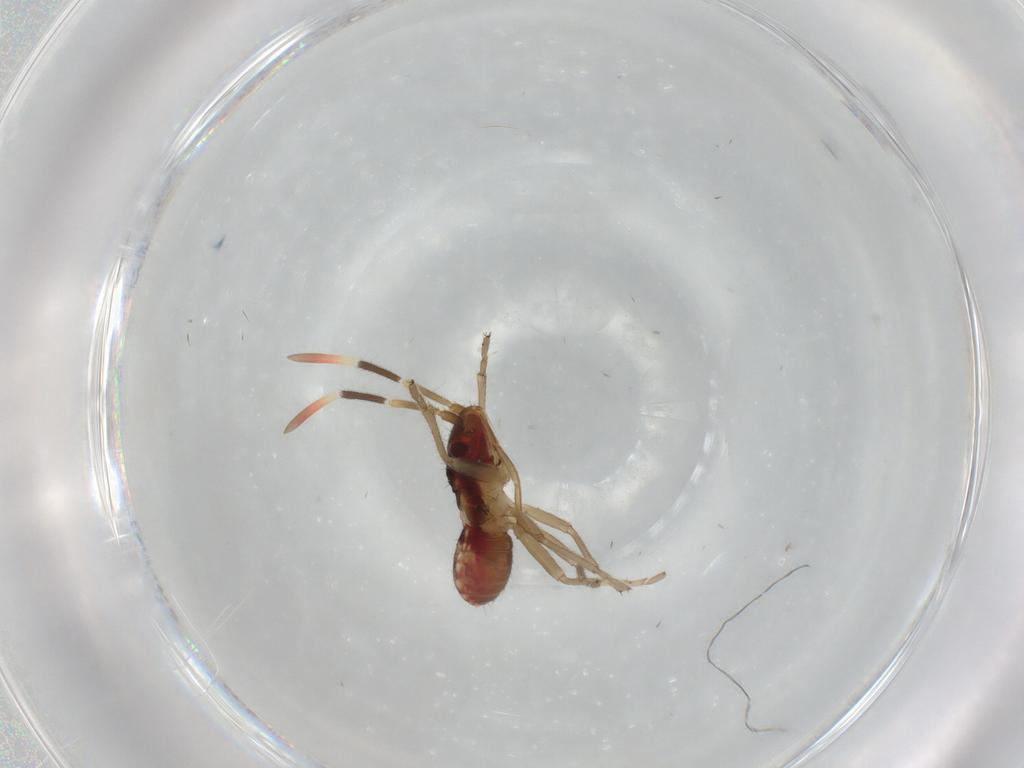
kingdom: Animalia
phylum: Arthropoda
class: Insecta
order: Hemiptera
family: Rhyparochromidae
